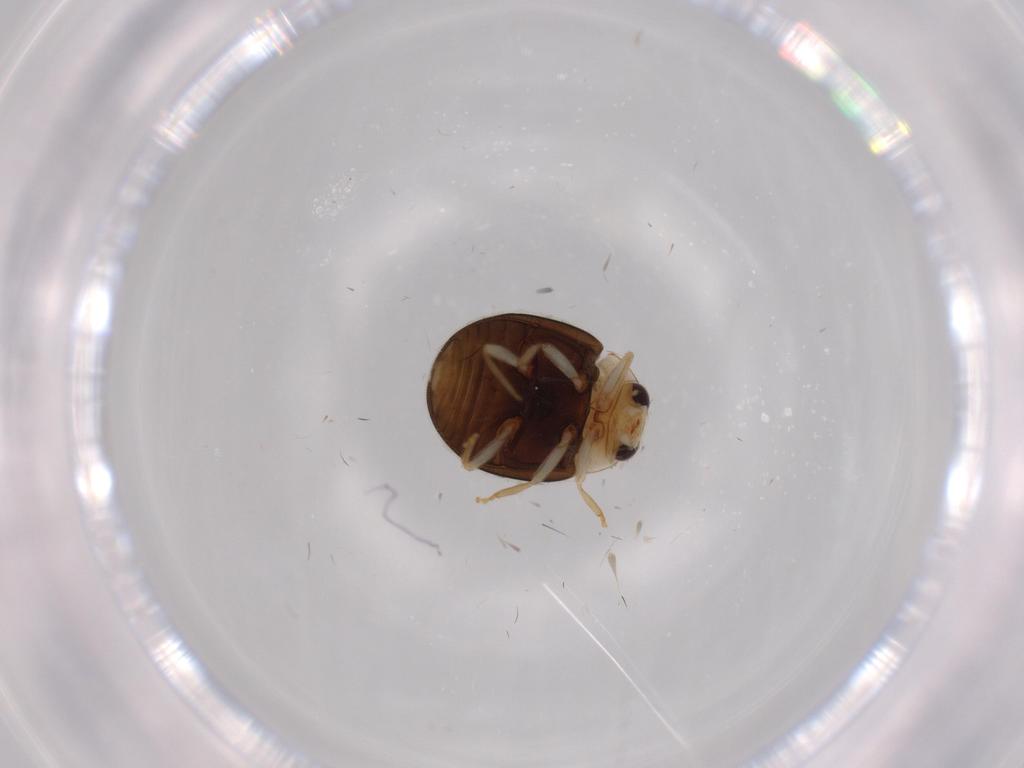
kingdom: Animalia
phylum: Arthropoda
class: Insecta
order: Coleoptera
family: Coccinellidae
